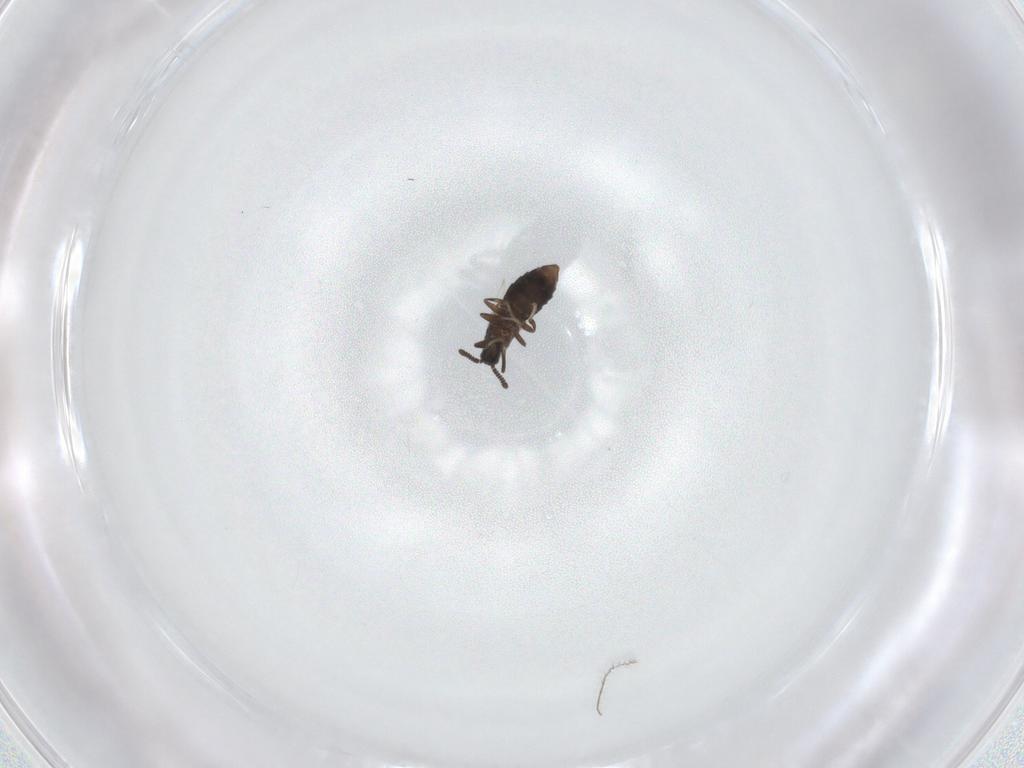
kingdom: Animalia
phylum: Arthropoda
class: Insecta
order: Diptera
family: Scatopsidae
